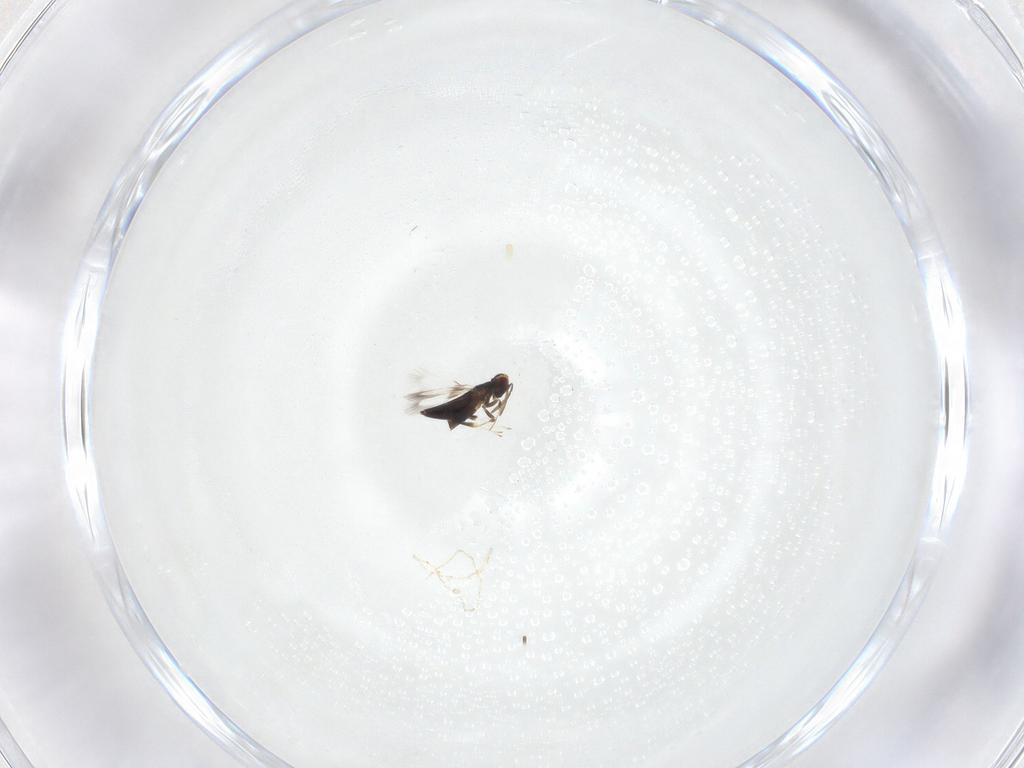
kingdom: Animalia
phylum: Arthropoda
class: Insecta
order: Hymenoptera
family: Signiphoridae
